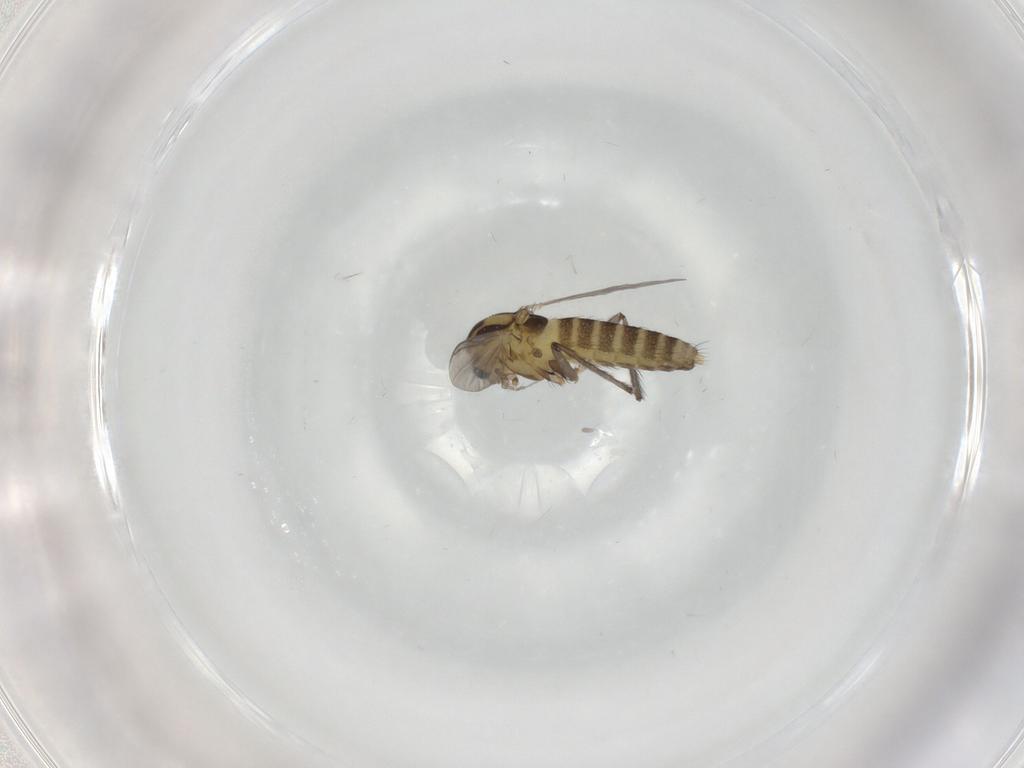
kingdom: Animalia
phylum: Arthropoda
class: Insecta
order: Diptera
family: Chironomidae
